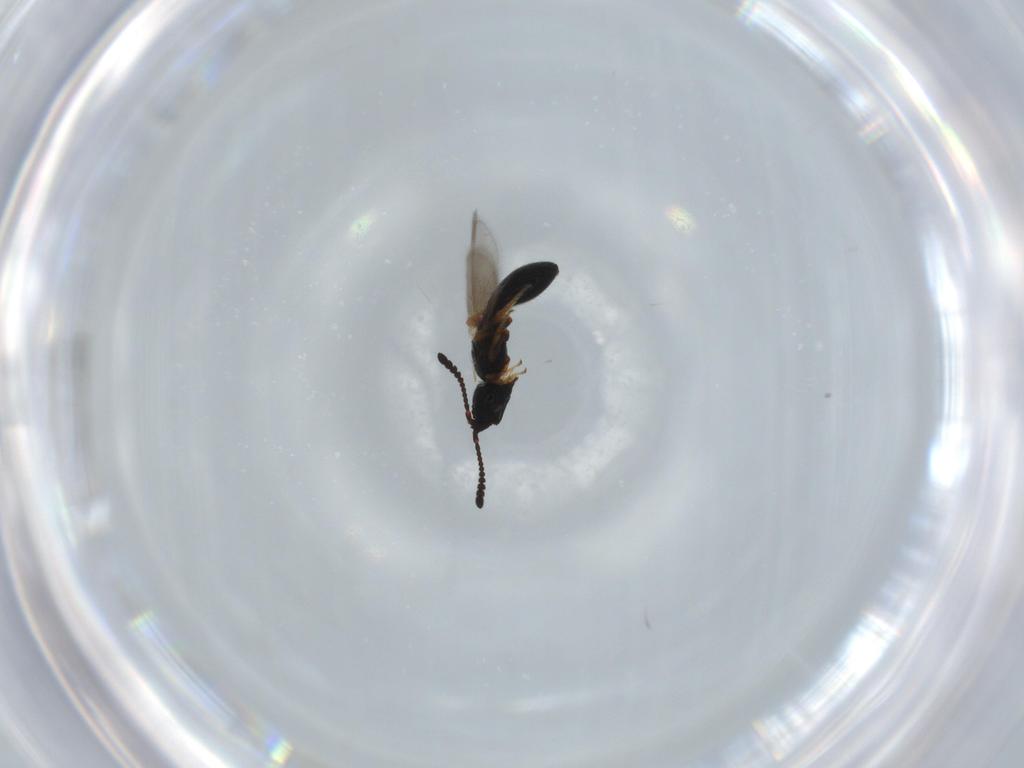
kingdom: Animalia
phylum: Arthropoda
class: Insecta
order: Hymenoptera
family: Diapriidae
